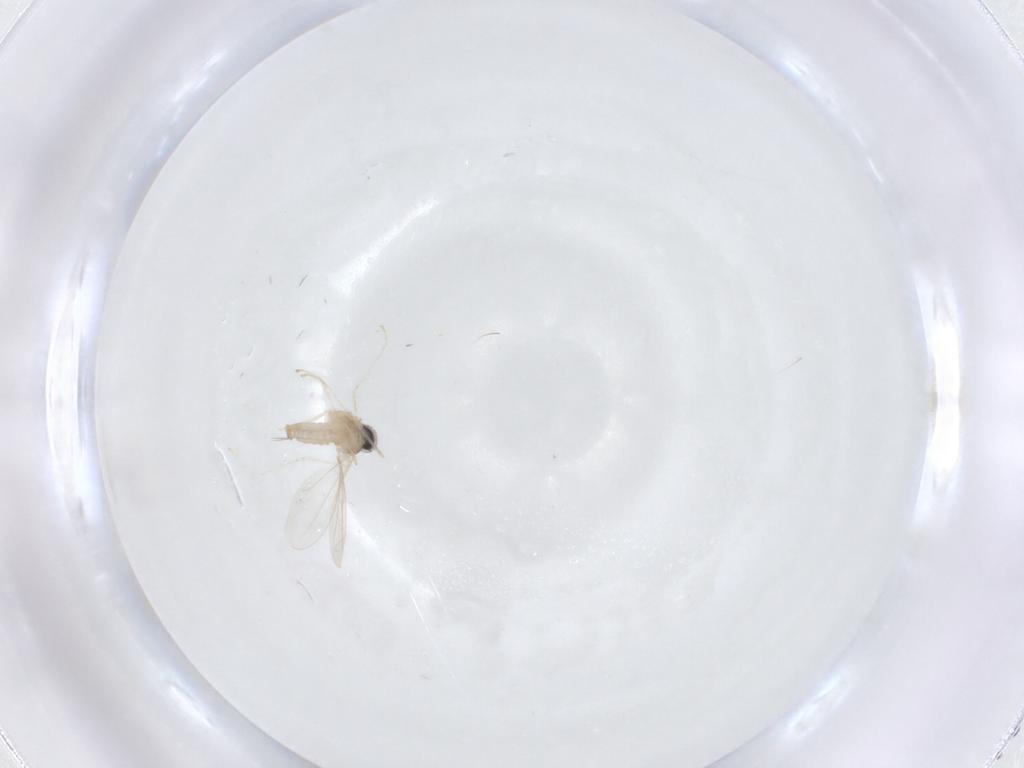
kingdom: Animalia
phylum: Arthropoda
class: Insecta
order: Diptera
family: Cecidomyiidae
